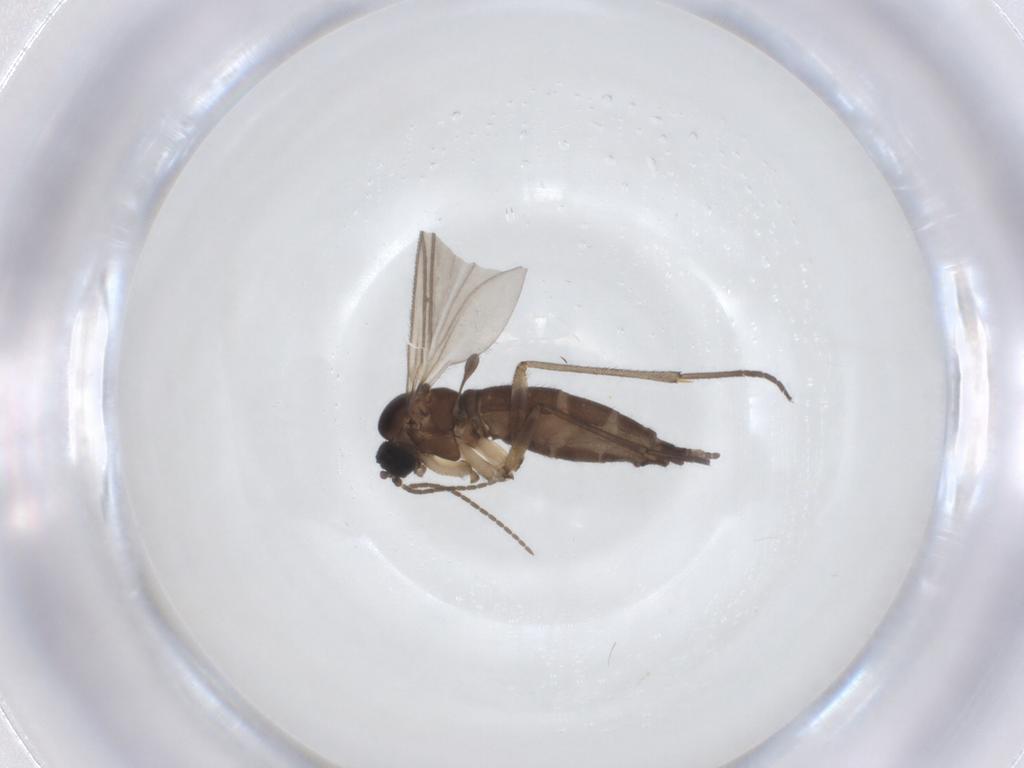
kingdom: Animalia
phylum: Arthropoda
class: Insecta
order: Diptera
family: Sciaridae
